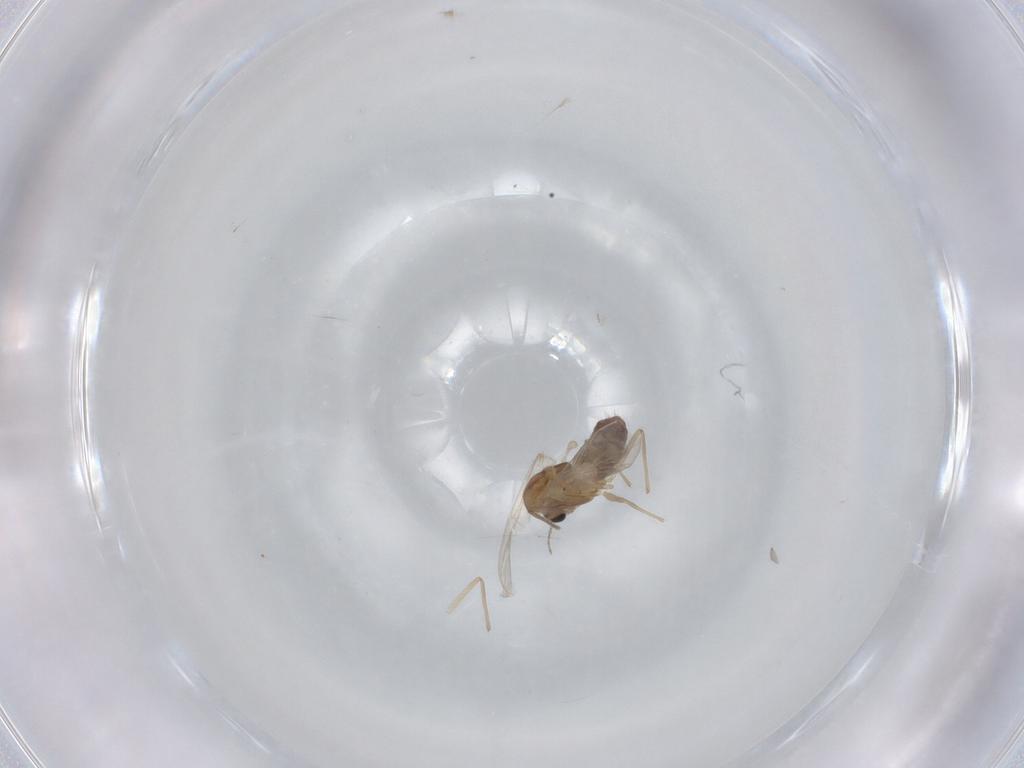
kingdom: Animalia
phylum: Arthropoda
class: Insecta
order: Diptera
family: Chironomidae
